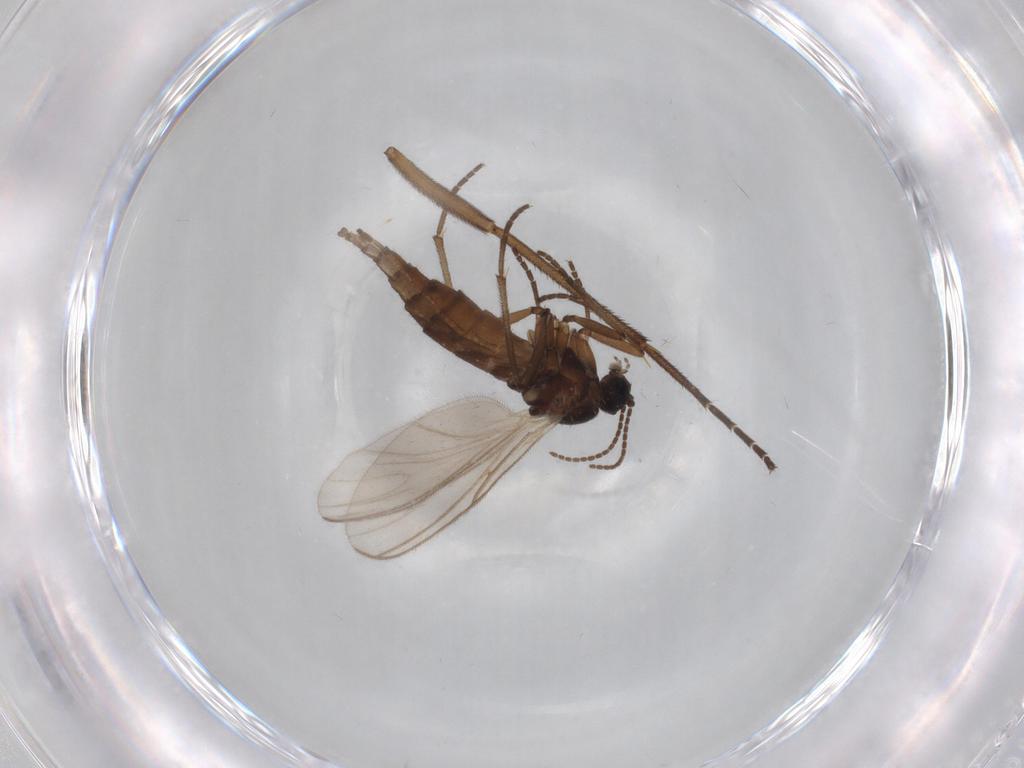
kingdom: Animalia
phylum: Arthropoda
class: Insecta
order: Diptera
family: Sciaridae
